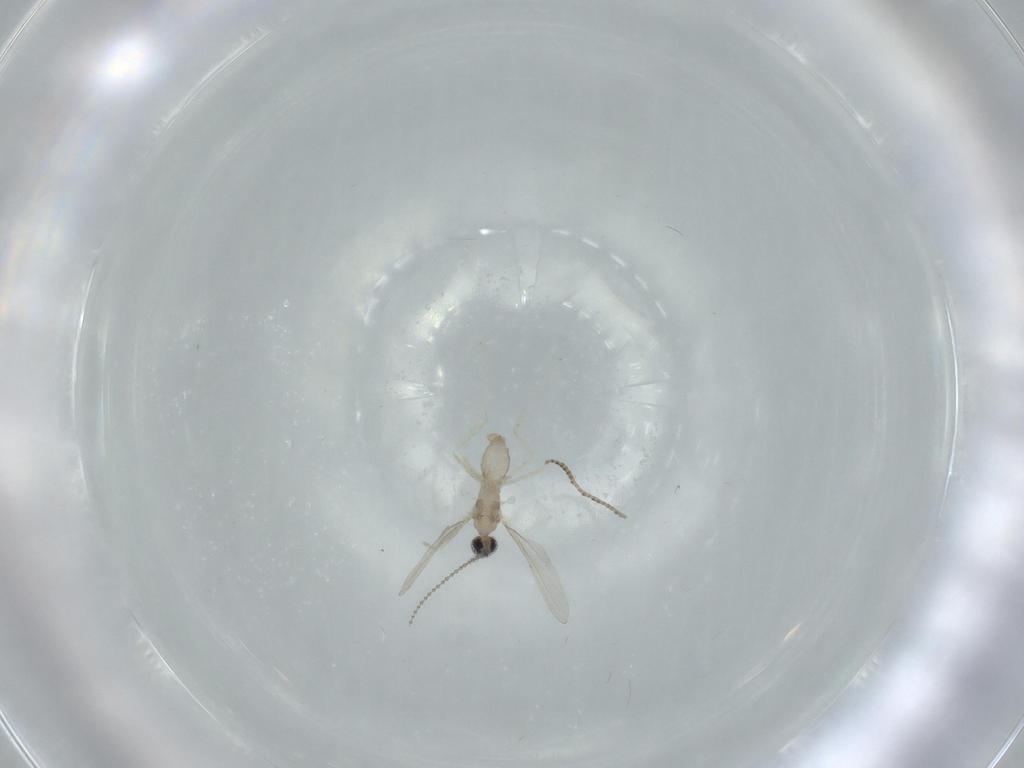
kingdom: Animalia
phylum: Arthropoda
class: Insecta
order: Diptera
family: Cecidomyiidae
